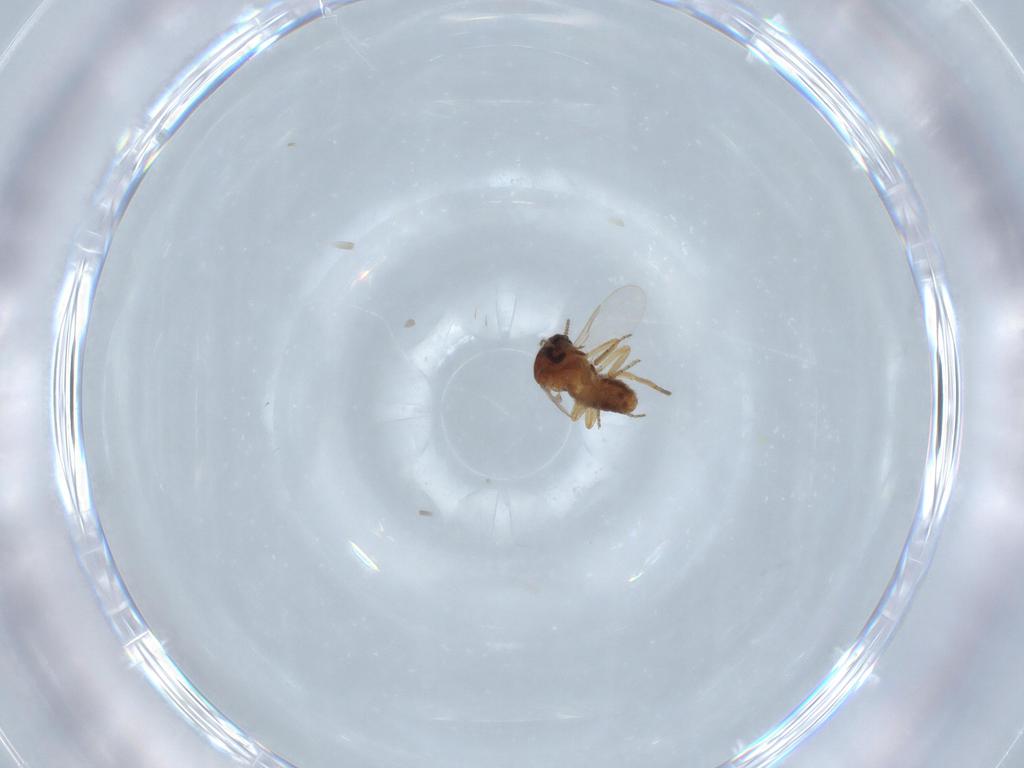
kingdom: Animalia
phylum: Arthropoda
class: Insecta
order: Diptera
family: Ceratopogonidae
